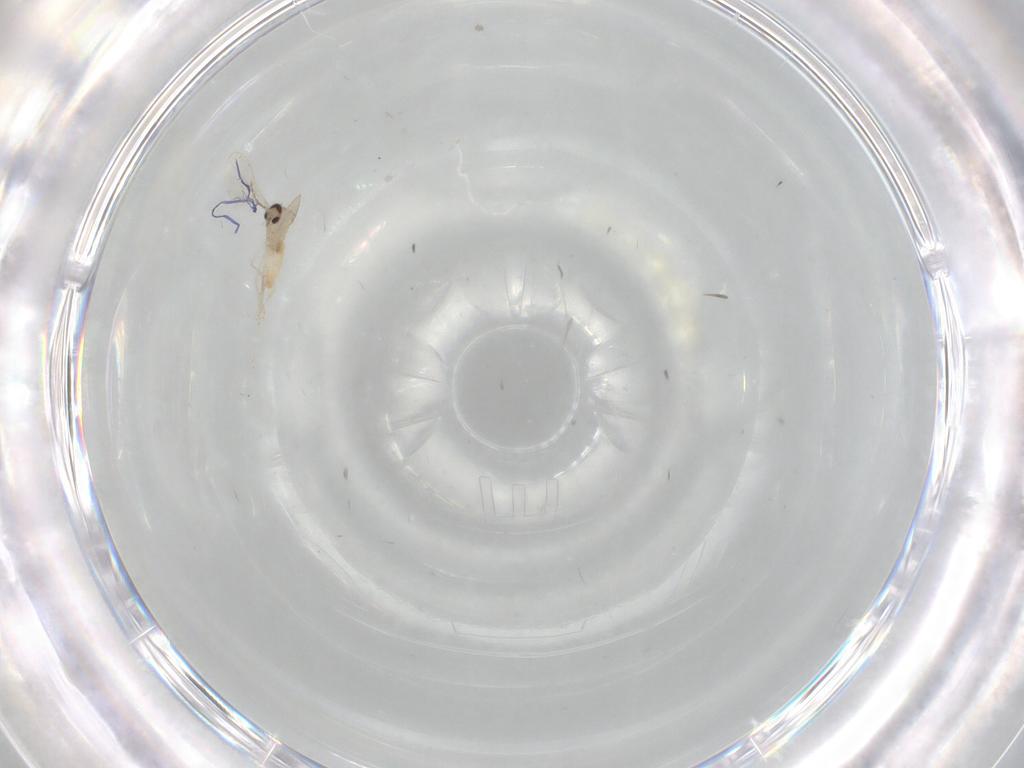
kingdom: Animalia
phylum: Arthropoda
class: Insecta
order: Diptera
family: Cecidomyiidae
